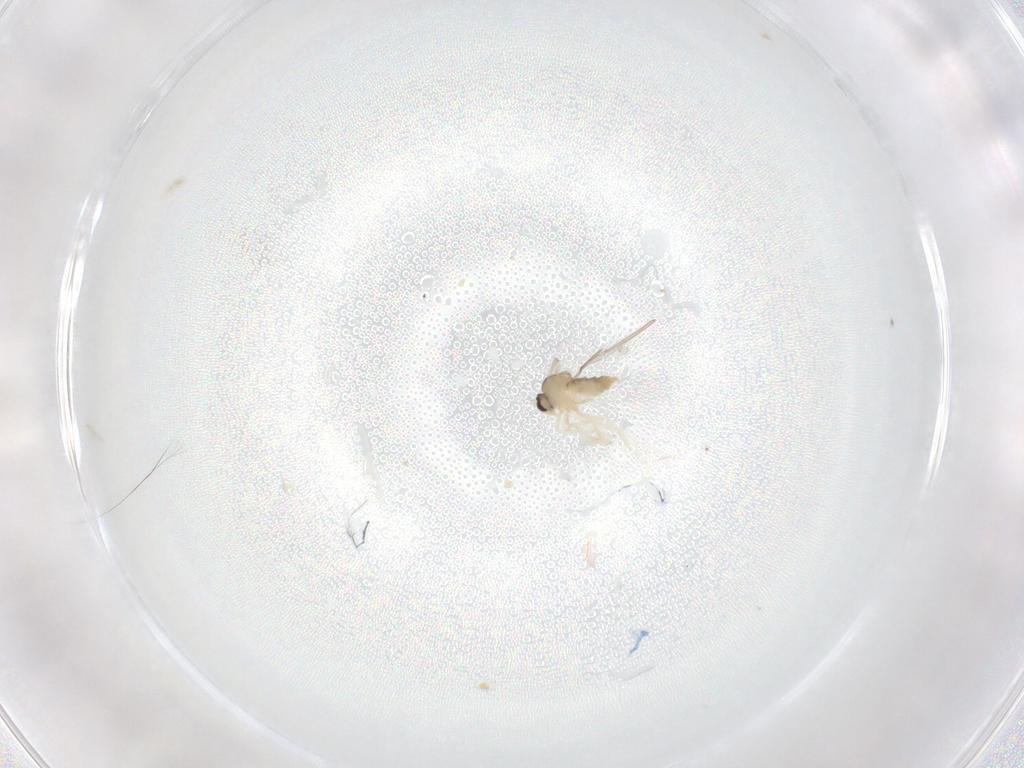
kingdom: Animalia
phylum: Arthropoda
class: Insecta
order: Diptera
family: Cecidomyiidae
